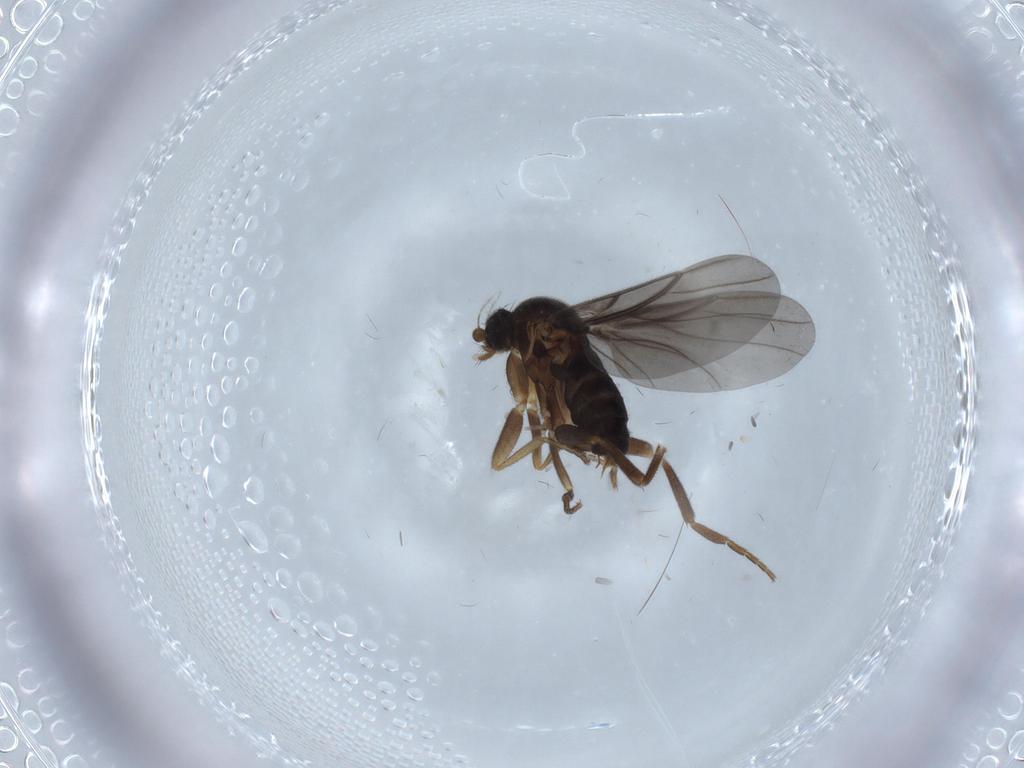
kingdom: Animalia
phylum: Arthropoda
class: Insecta
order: Diptera
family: Phoridae
